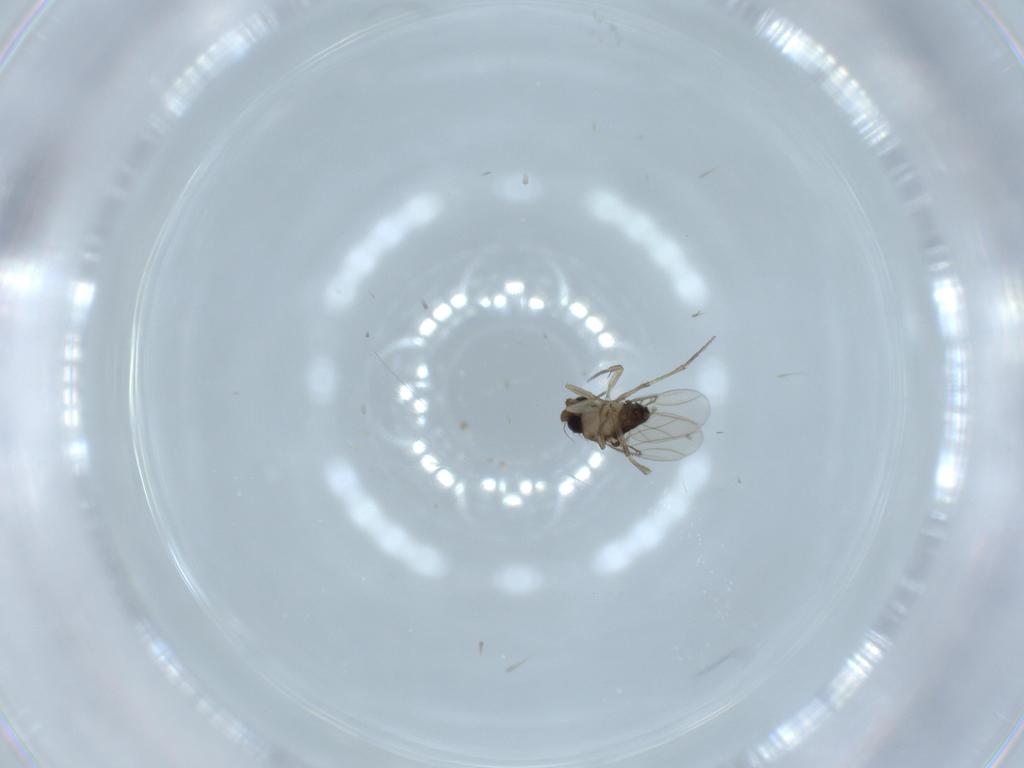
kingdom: Animalia
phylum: Arthropoda
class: Insecta
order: Diptera
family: Phoridae
